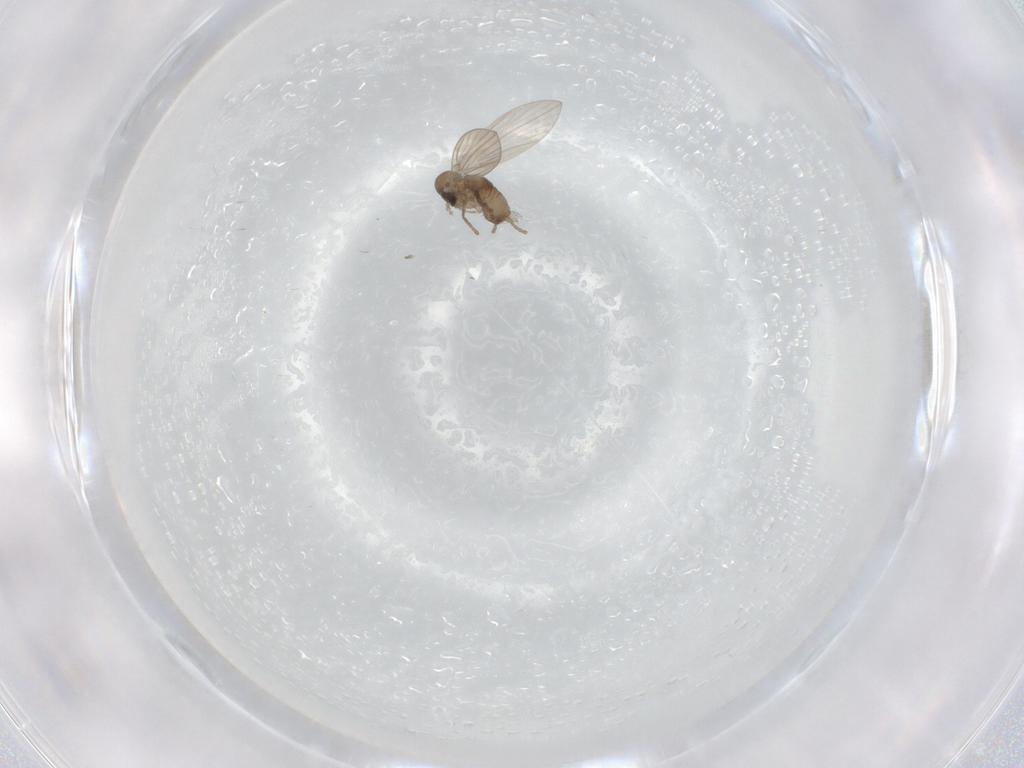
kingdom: Animalia
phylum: Arthropoda
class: Insecta
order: Diptera
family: Psychodidae
